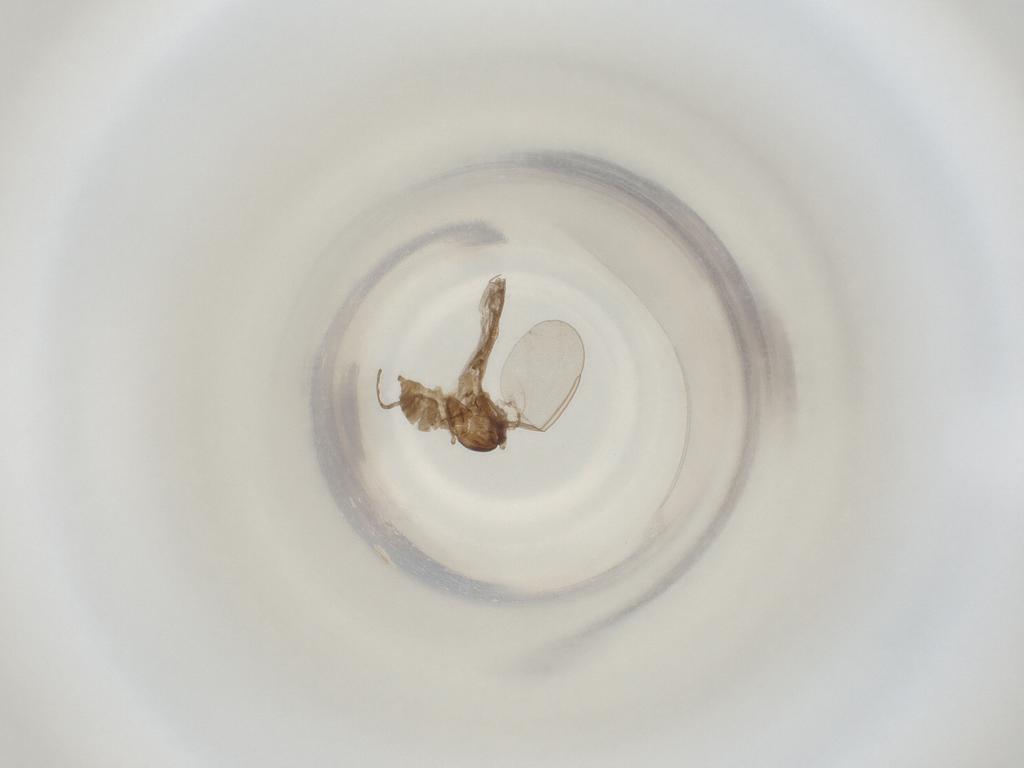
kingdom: Animalia
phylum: Arthropoda
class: Insecta
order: Diptera
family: Cecidomyiidae
